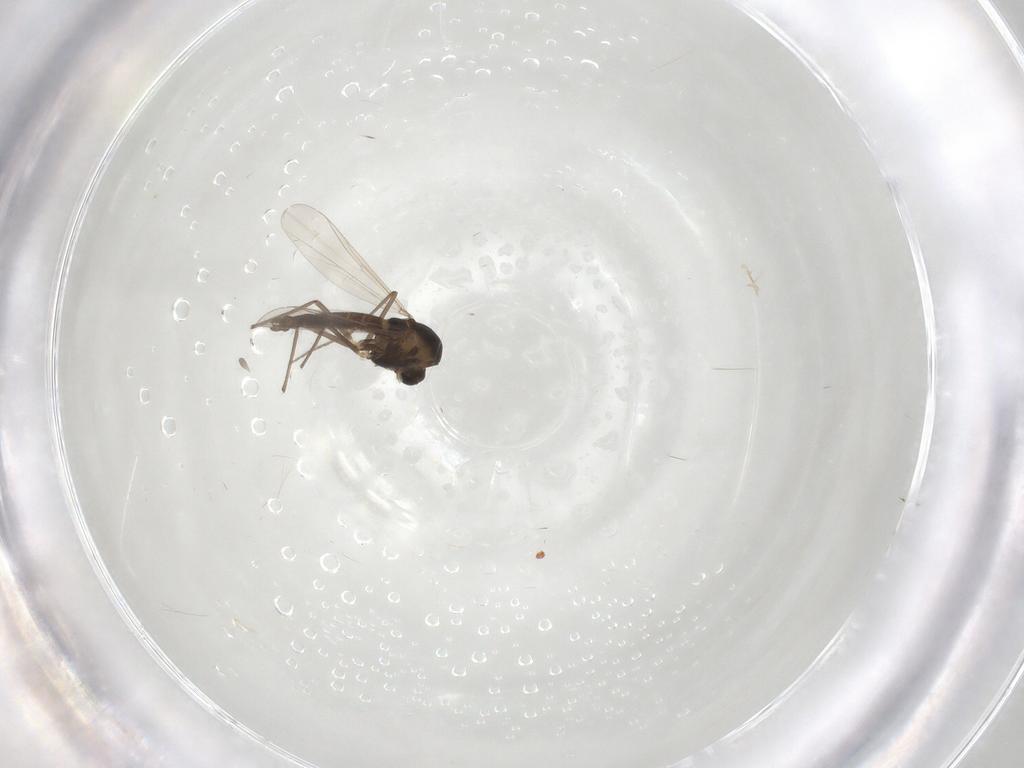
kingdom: Animalia
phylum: Arthropoda
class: Insecta
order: Diptera
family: Chironomidae
